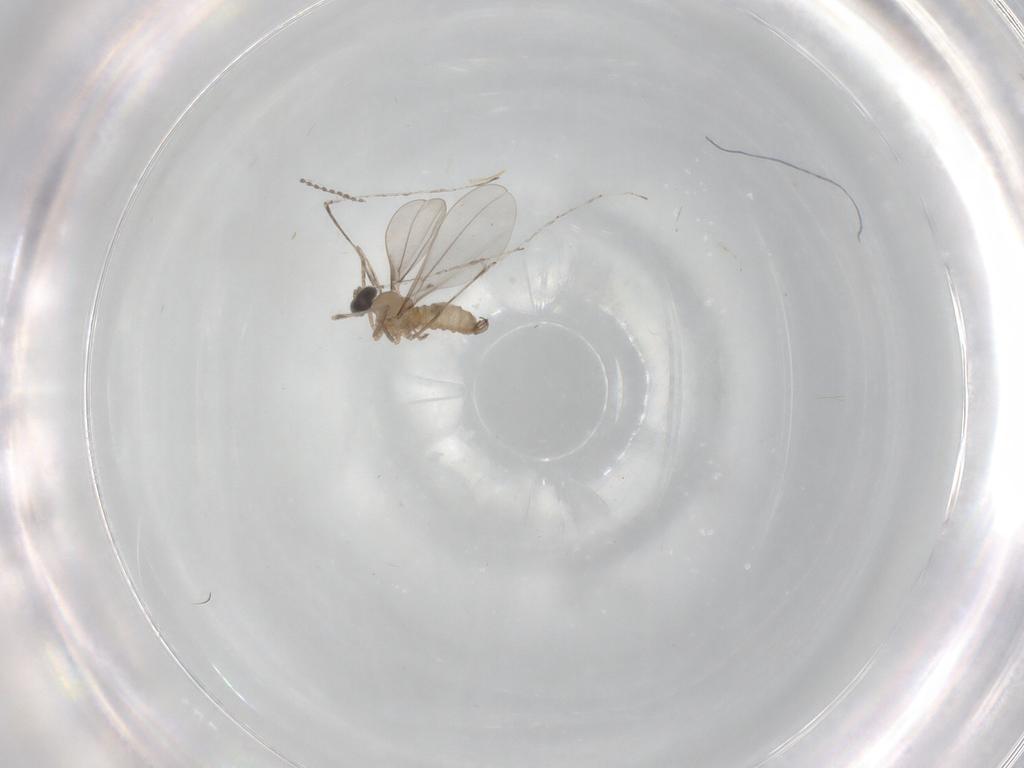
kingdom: Animalia
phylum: Arthropoda
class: Insecta
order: Diptera
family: Cecidomyiidae
